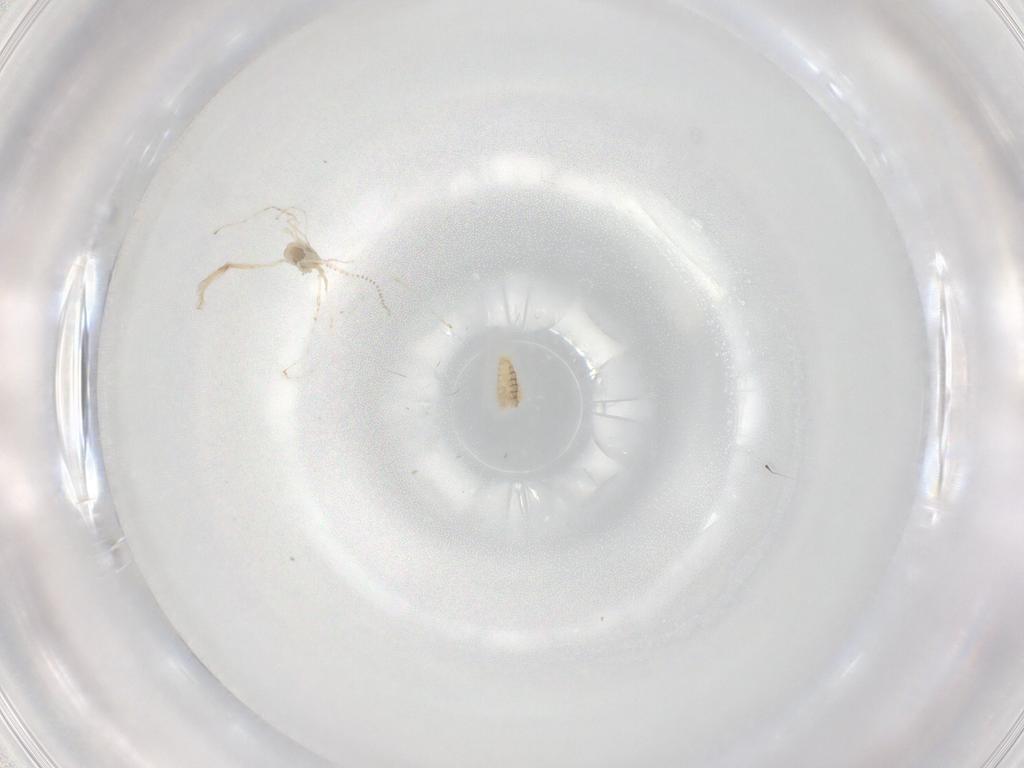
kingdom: Animalia
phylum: Arthropoda
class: Insecta
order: Diptera
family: Cecidomyiidae
